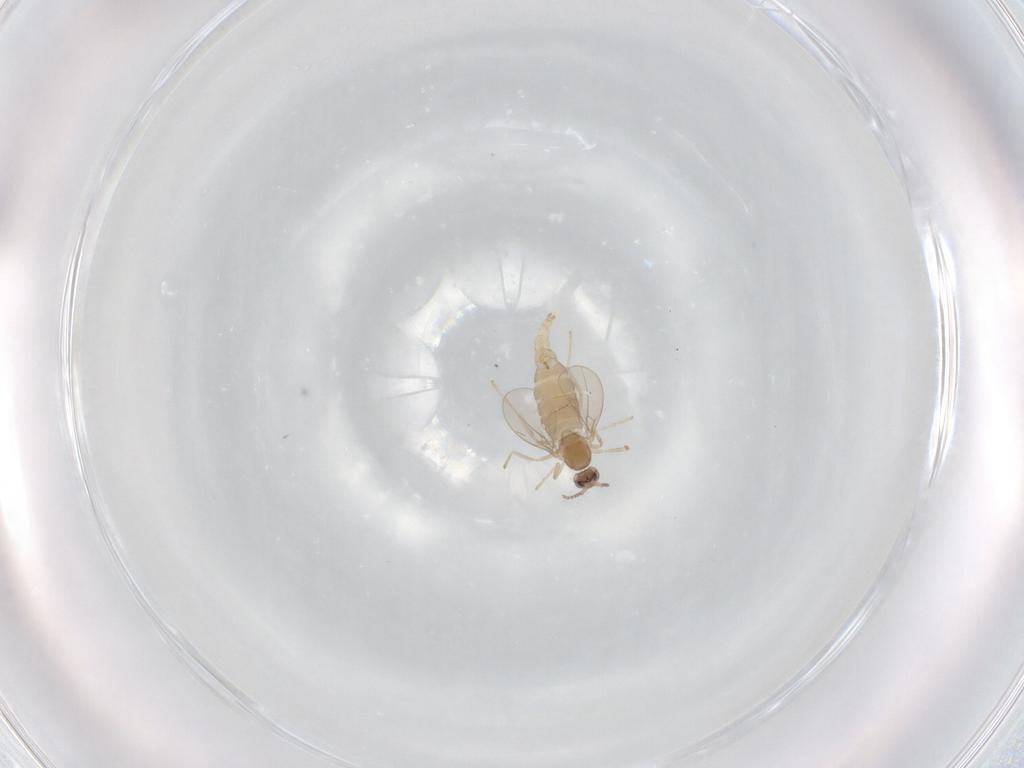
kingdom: Animalia
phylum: Arthropoda
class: Insecta
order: Diptera
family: Cecidomyiidae
